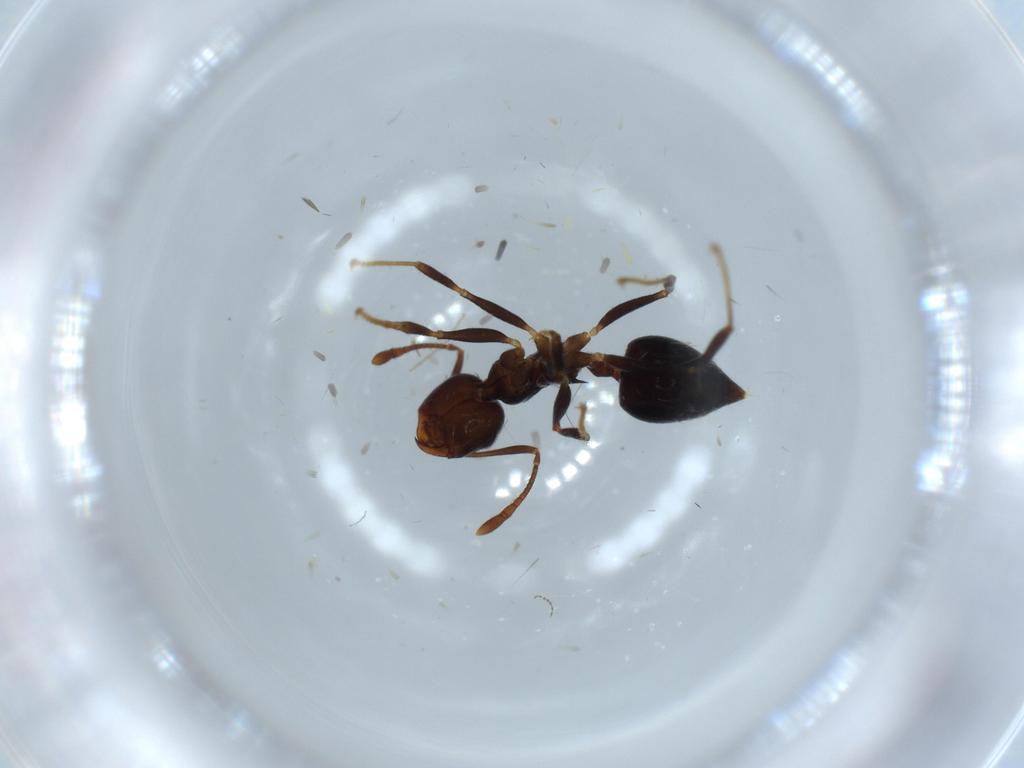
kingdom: Animalia
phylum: Arthropoda
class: Insecta
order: Hymenoptera
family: Formicidae
